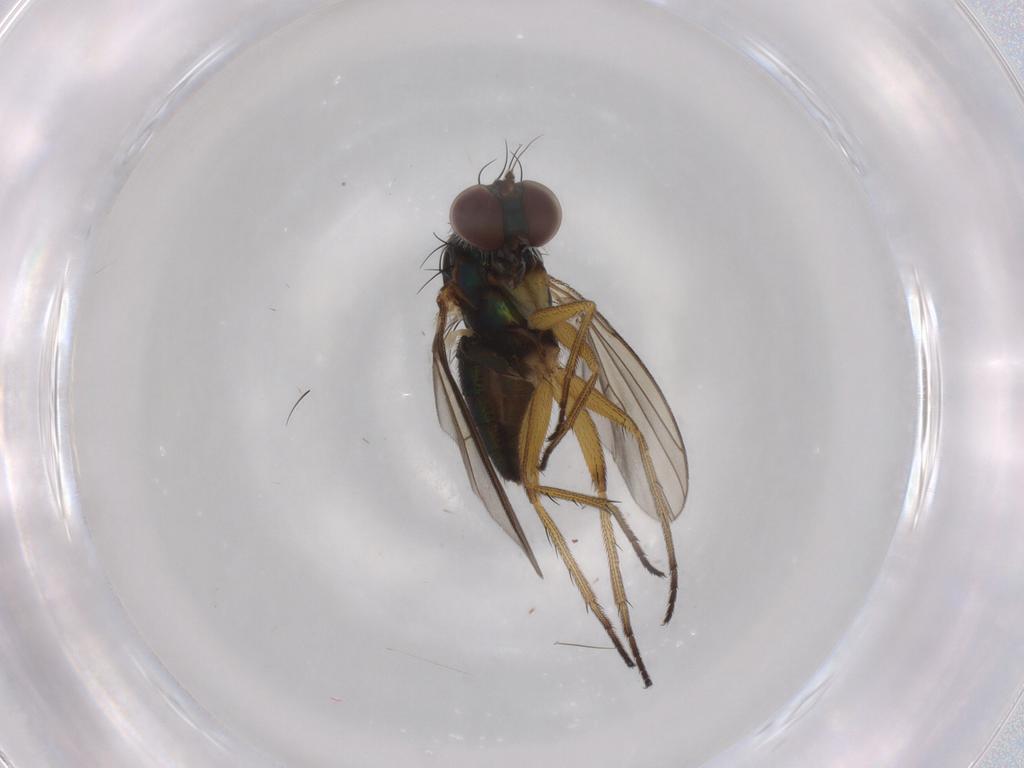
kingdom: Animalia
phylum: Arthropoda
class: Insecta
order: Diptera
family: Dolichopodidae
